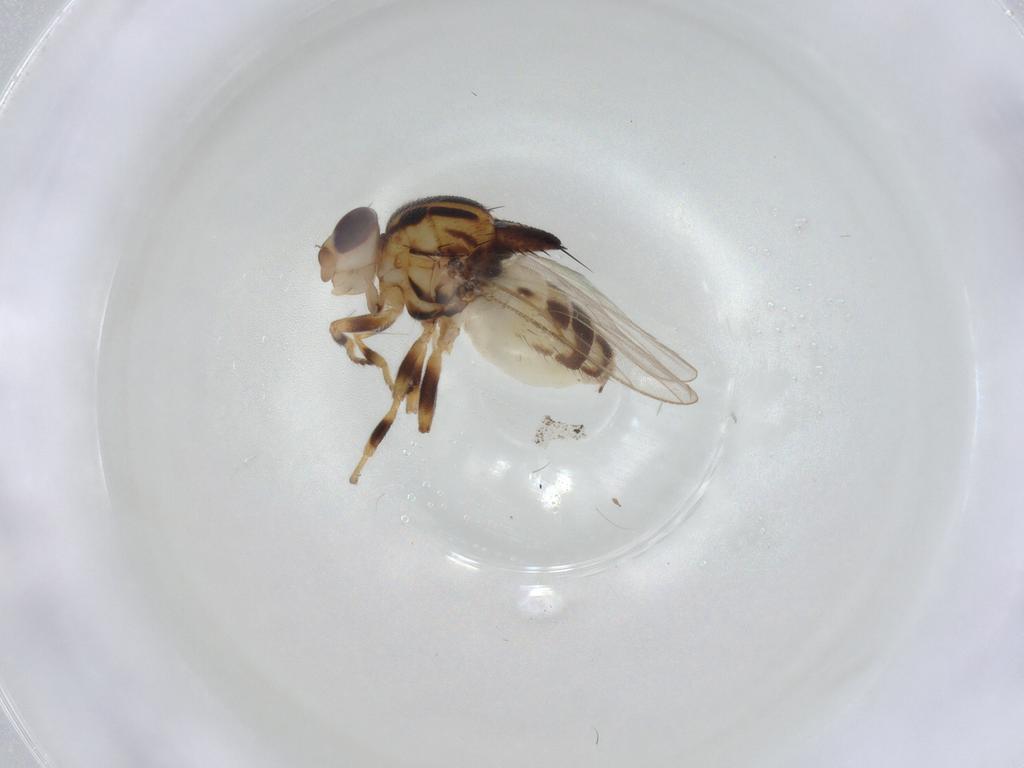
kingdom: Animalia
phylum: Arthropoda
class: Insecta
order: Diptera
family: Chloropidae
